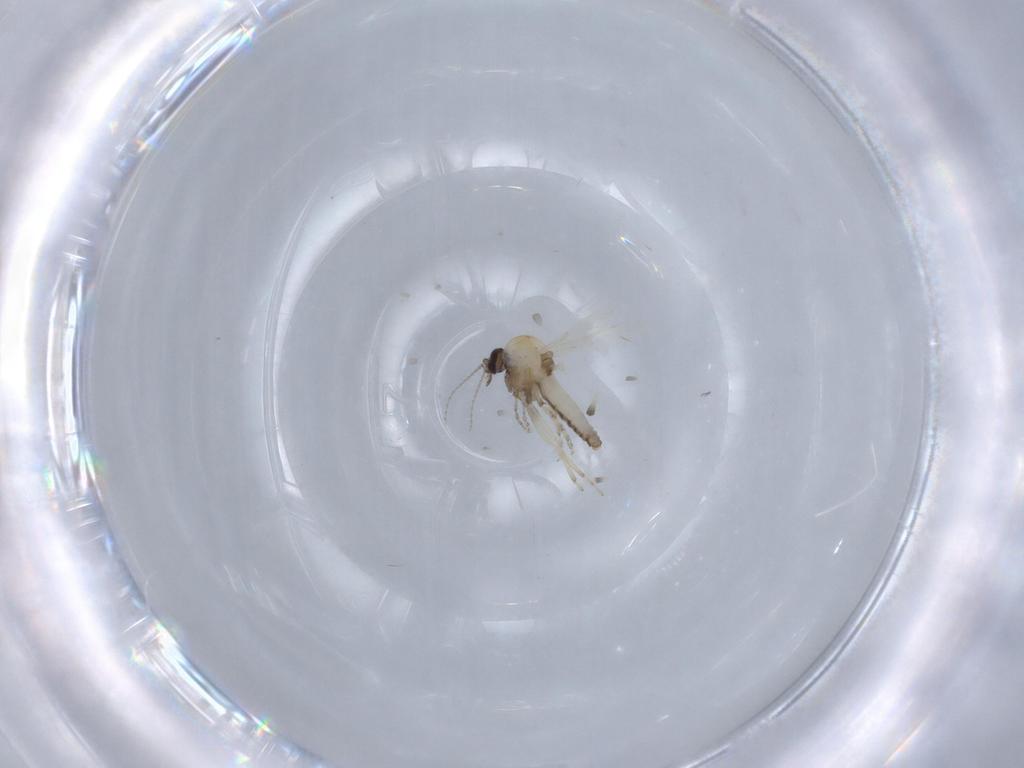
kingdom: Animalia
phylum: Arthropoda
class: Insecta
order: Diptera
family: Ceratopogonidae
